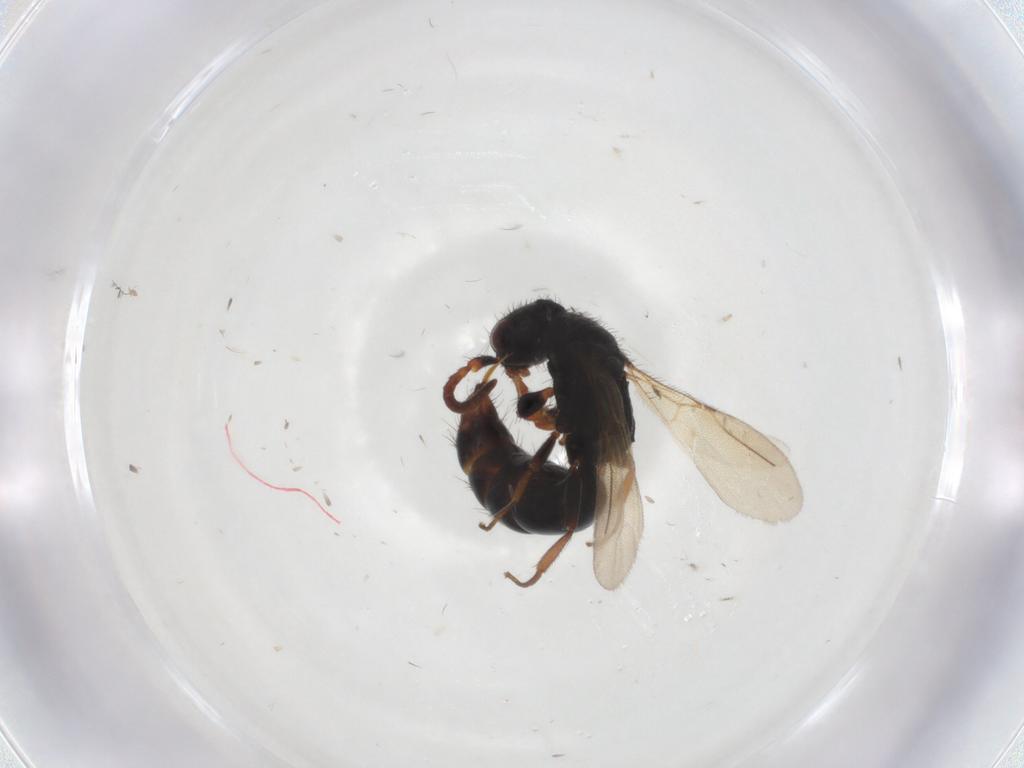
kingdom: Animalia
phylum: Arthropoda
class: Insecta
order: Hymenoptera
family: Bethylidae
